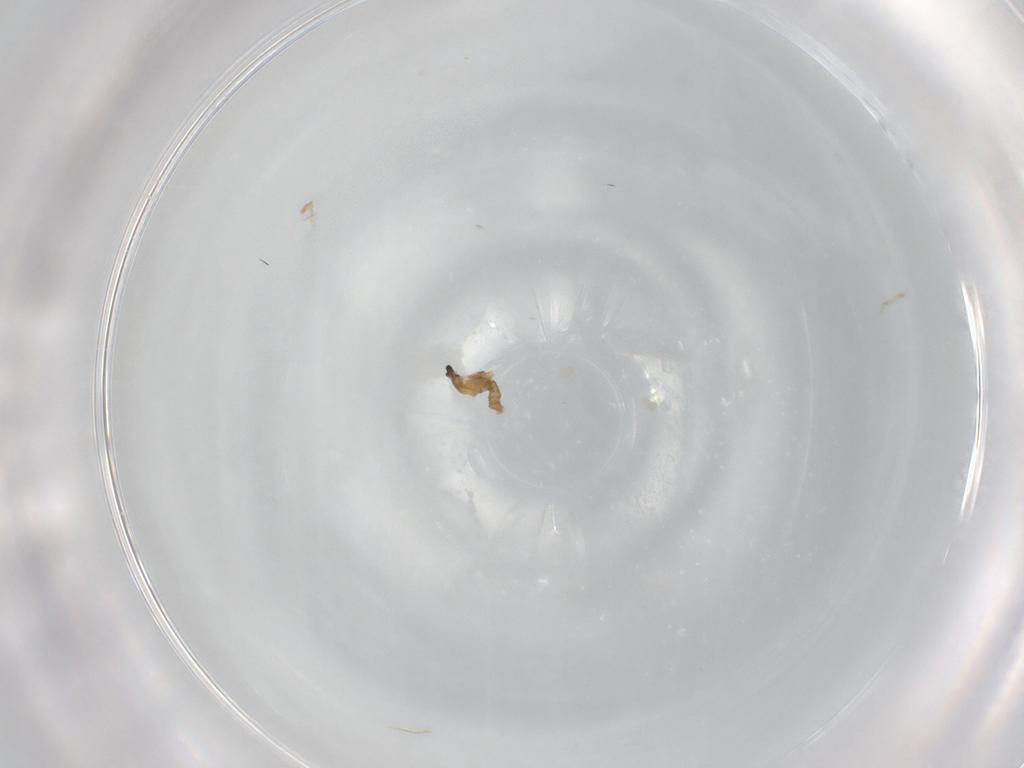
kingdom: Animalia
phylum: Arthropoda
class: Insecta
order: Diptera
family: Cecidomyiidae
